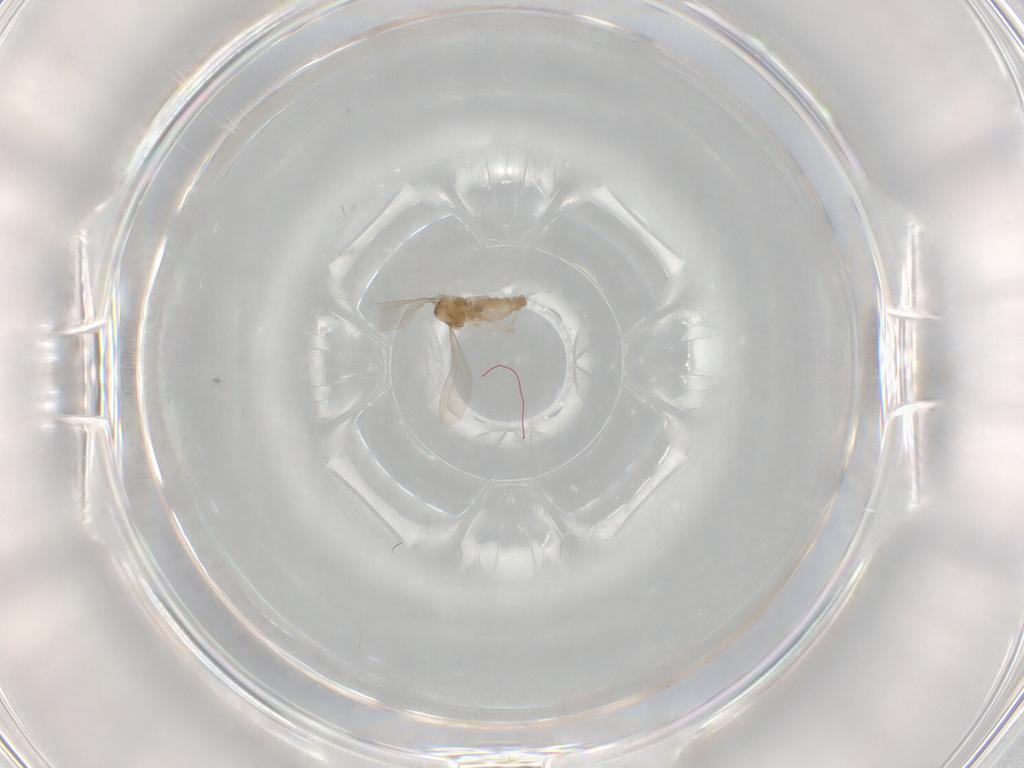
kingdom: Animalia
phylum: Arthropoda
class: Insecta
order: Diptera
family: Cecidomyiidae
